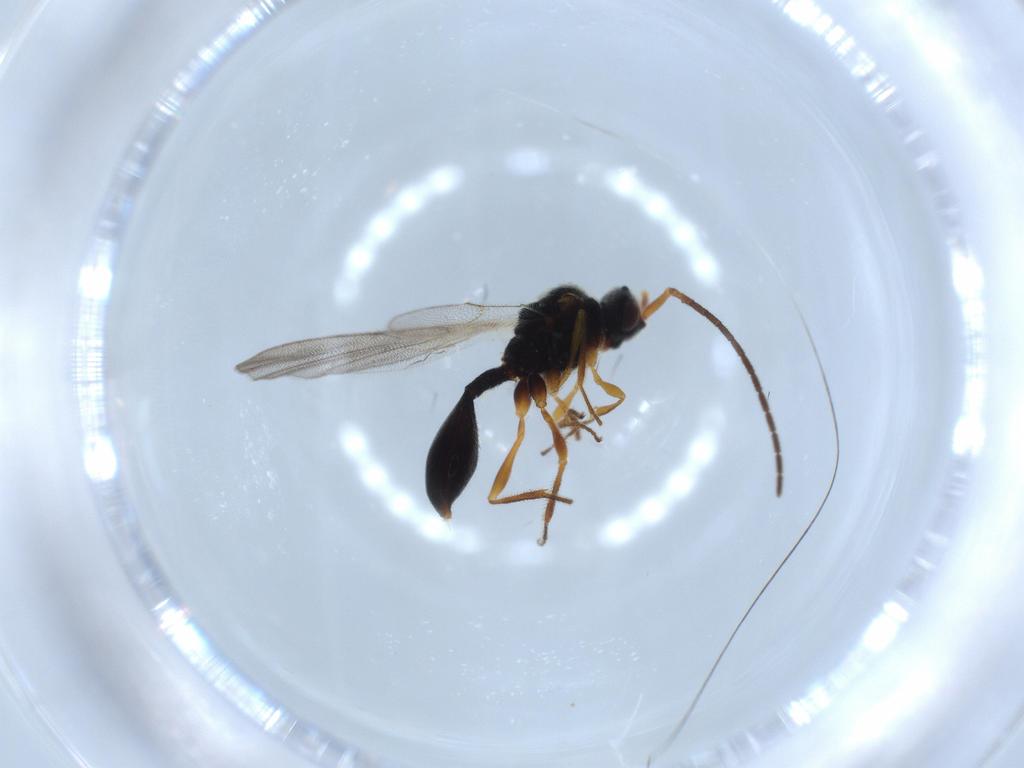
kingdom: Animalia
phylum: Arthropoda
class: Insecta
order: Hymenoptera
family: Diapriidae
